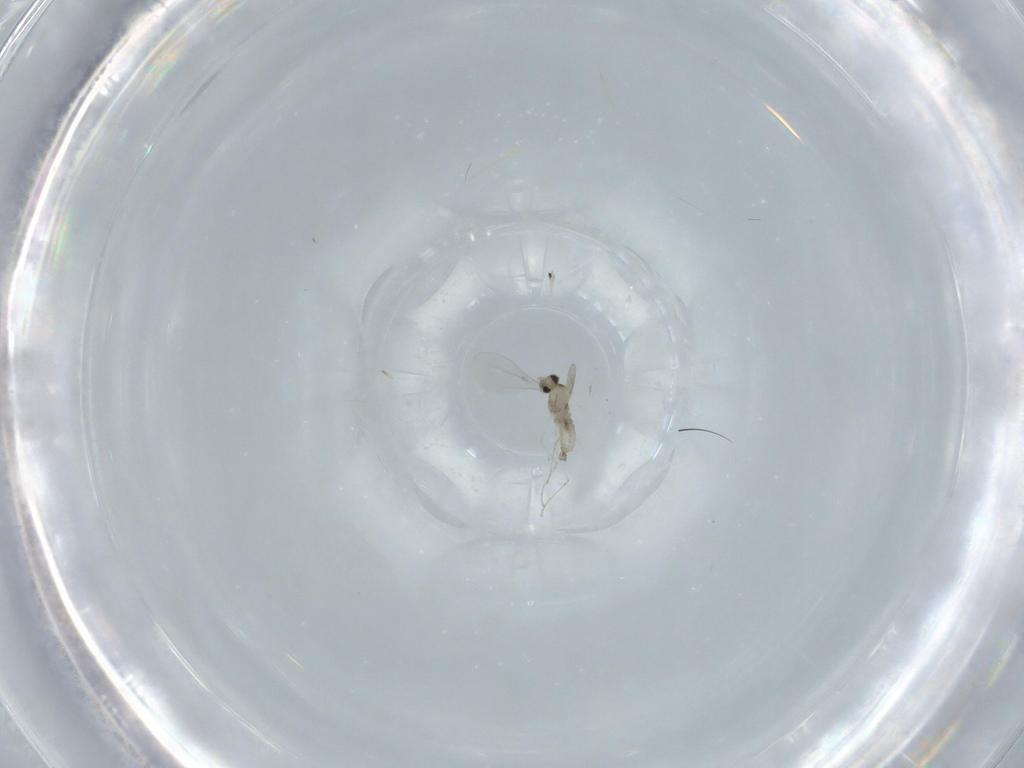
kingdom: Animalia
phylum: Arthropoda
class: Insecta
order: Diptera
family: Cecidomyiidae
